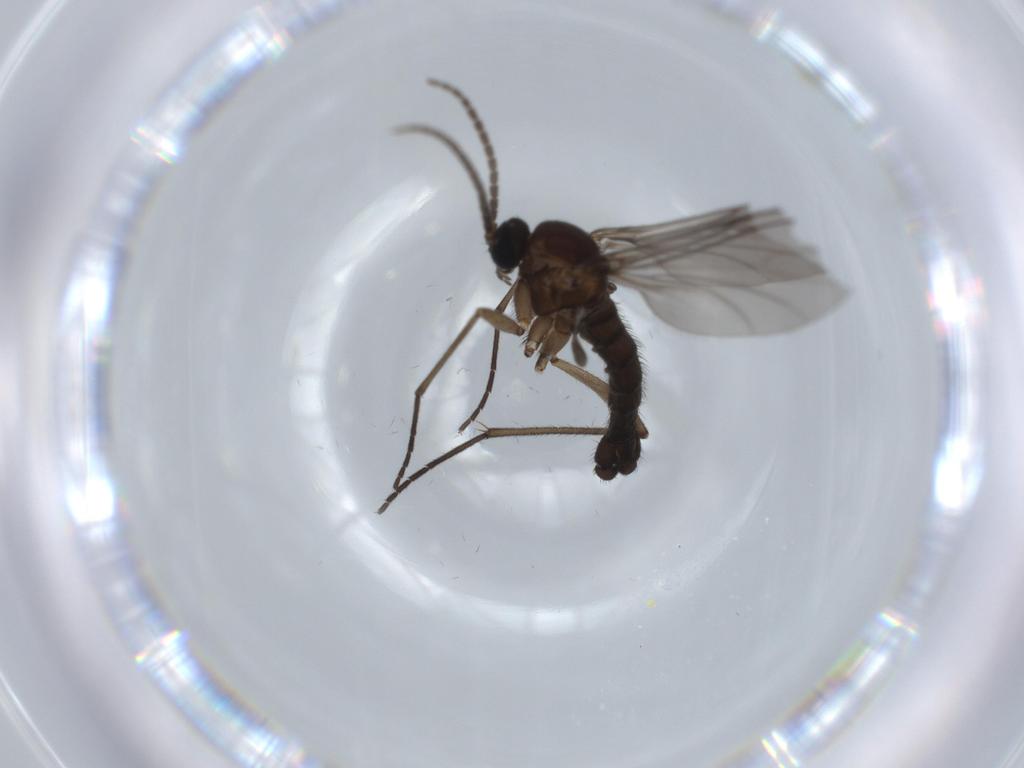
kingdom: Animalia
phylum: Arthropoda
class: Insecta
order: Diptera
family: Sciaridae
